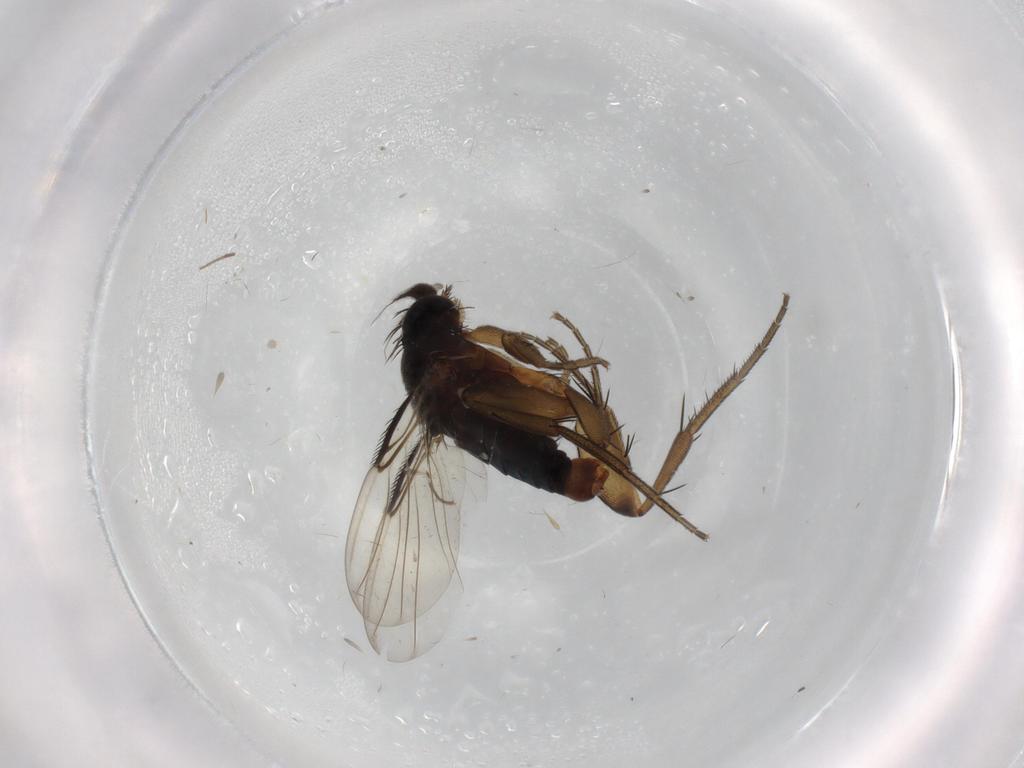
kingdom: Animalia
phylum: Arthropoda
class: Insecta
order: Diptera
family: Phoridae
